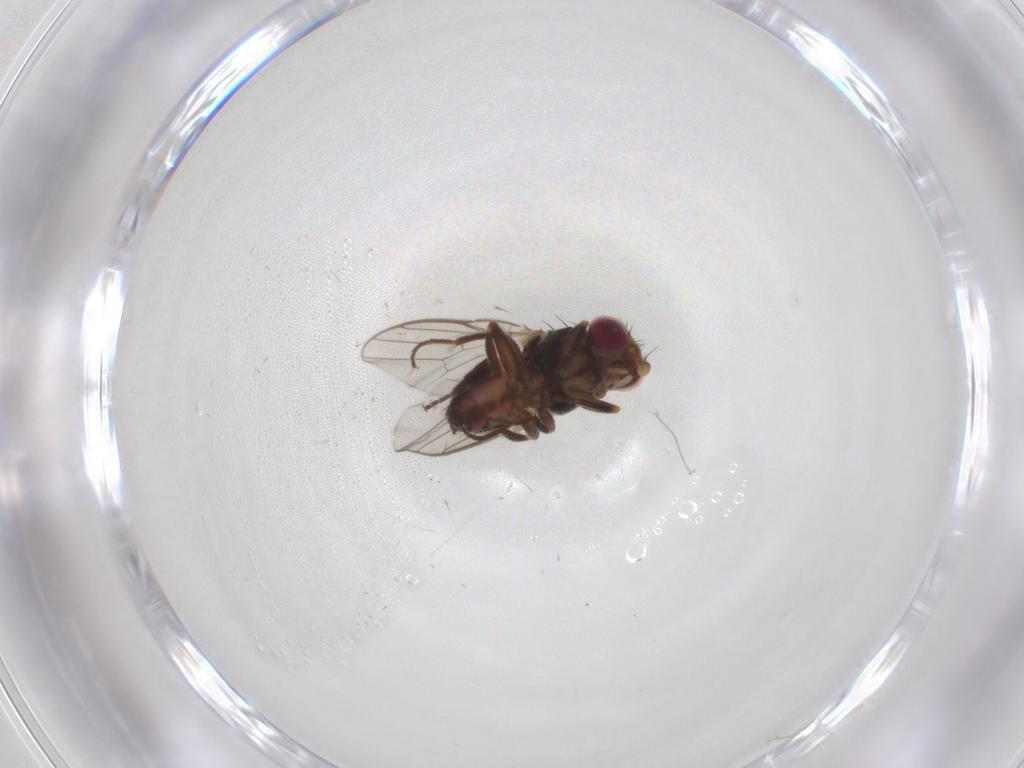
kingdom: Animalia
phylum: Arthropoda
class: Insecta
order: Diptera
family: Chloropidae
